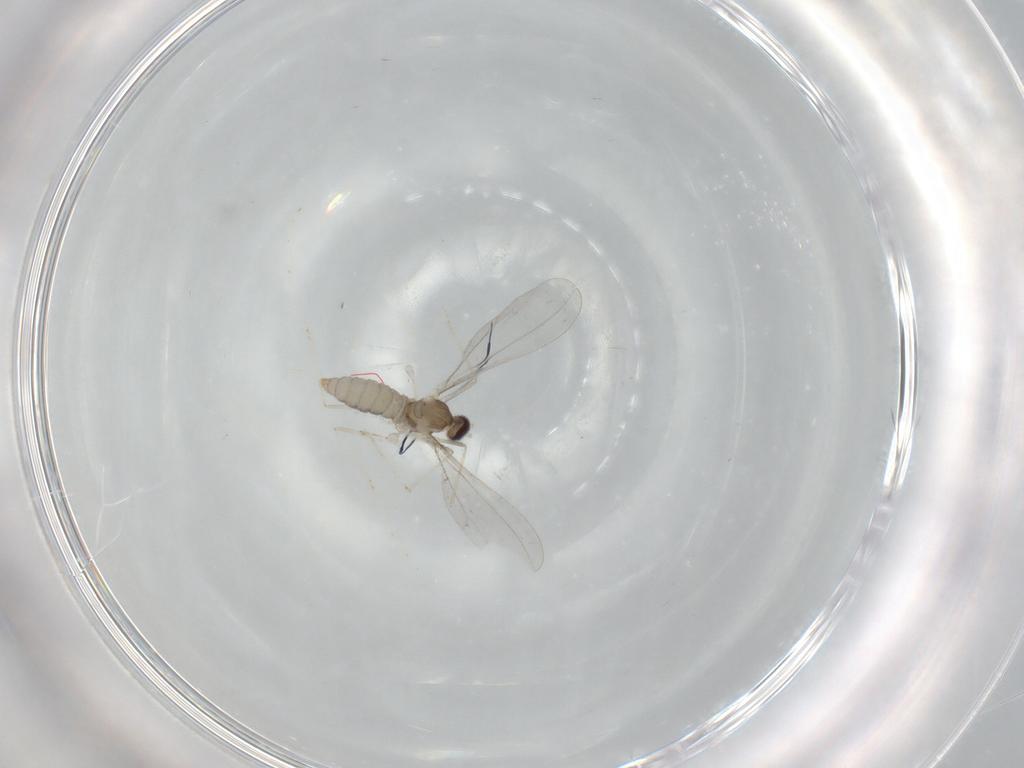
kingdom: Animalia
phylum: Arthropoda
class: Insecta
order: Diptera
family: Cecidomyiidae
